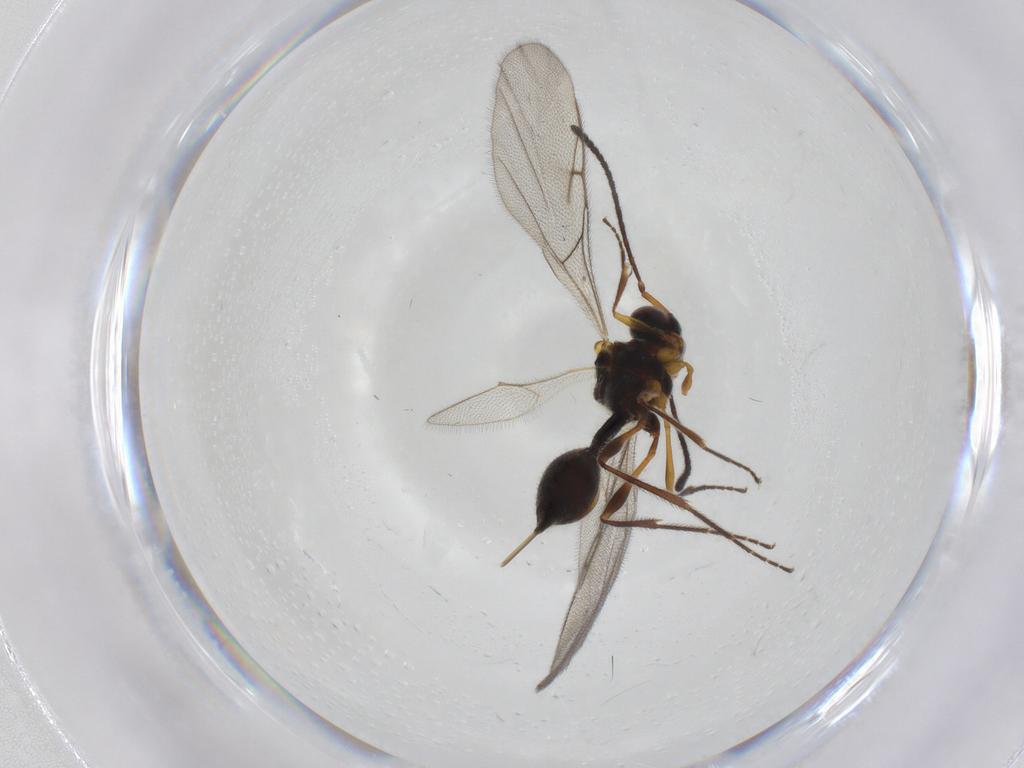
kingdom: Animalia
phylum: Arthropoda
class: Insecta
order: Hymenoptera
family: Diapriidae
